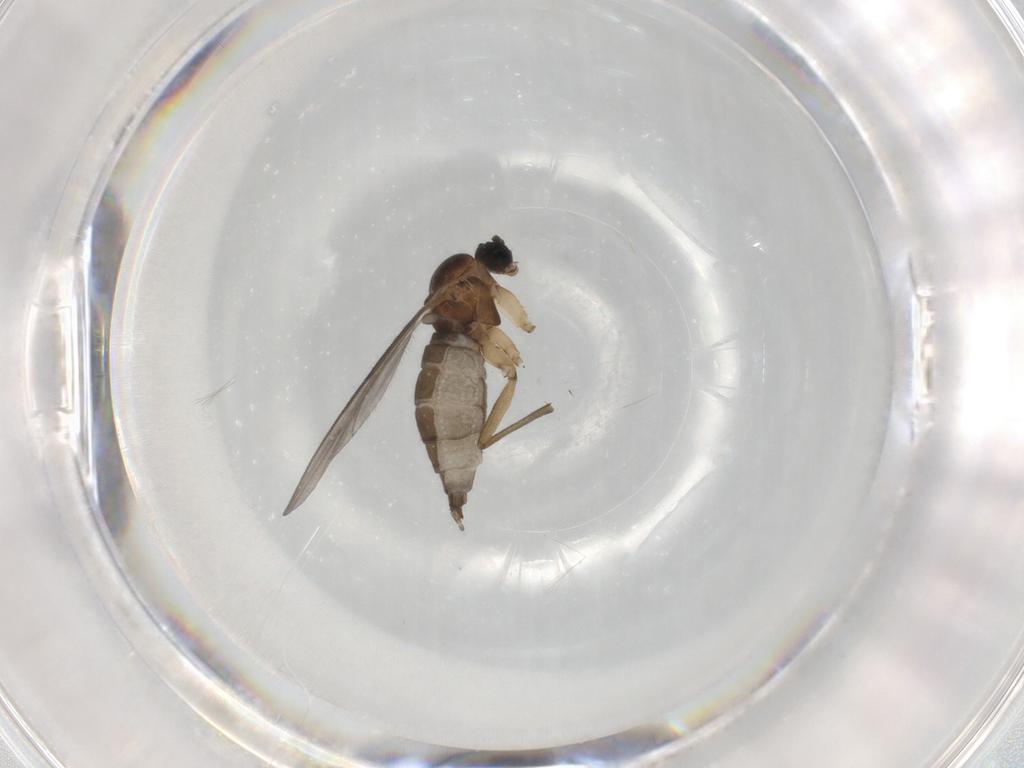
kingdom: Animalia
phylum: Arthropoda
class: Insecta
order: Diptera
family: Sciaridae
